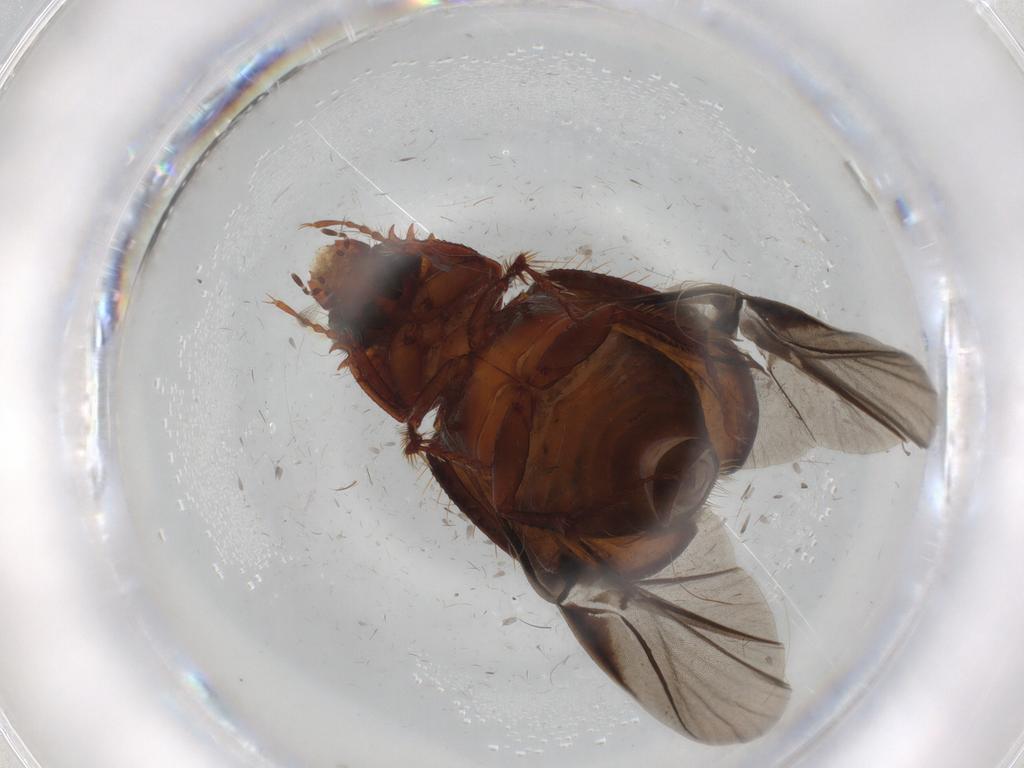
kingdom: Animalia
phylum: Arthropoda
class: Insecta
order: Coleoptera
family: Hybosoridae
